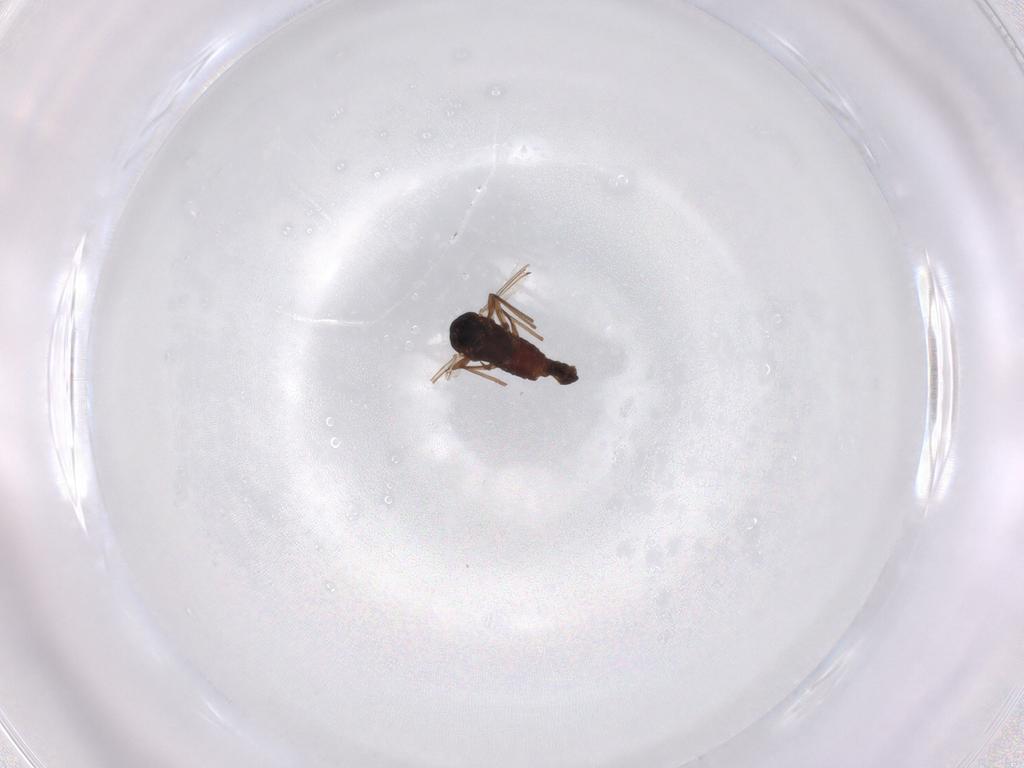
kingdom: Animalia
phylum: Arthropoda
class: Insecta
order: Diptera
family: Chironomidae
